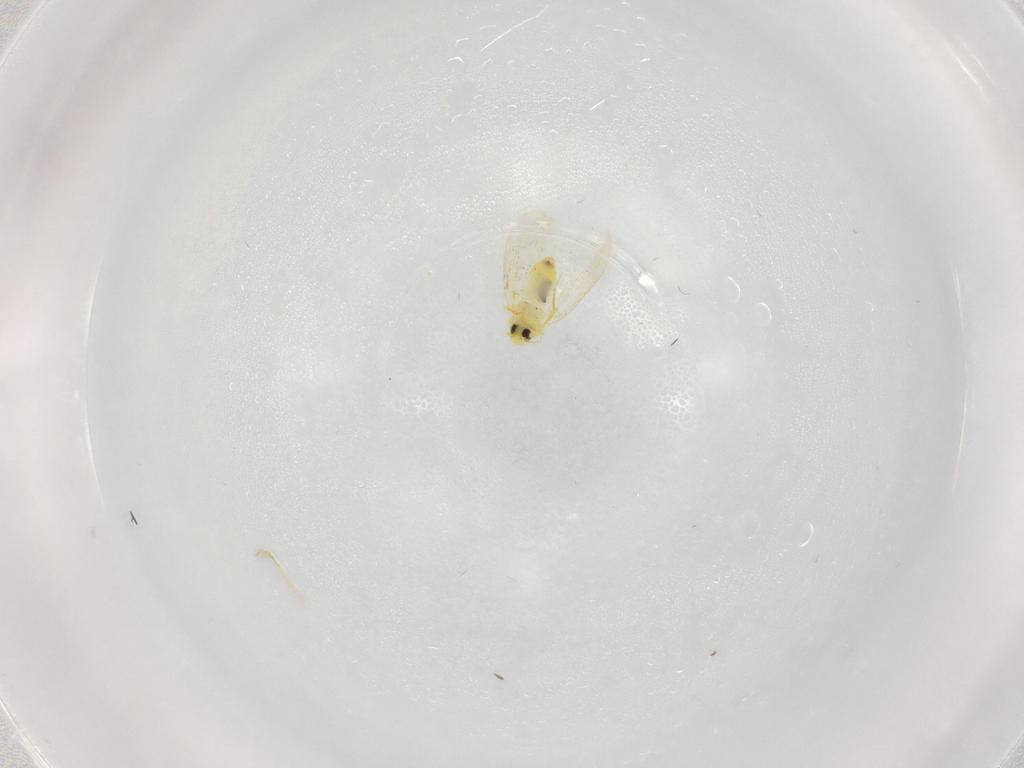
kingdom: Animalia
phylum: Arthropoda
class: Insecta
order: Hemiptera
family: Aleyrodidae
